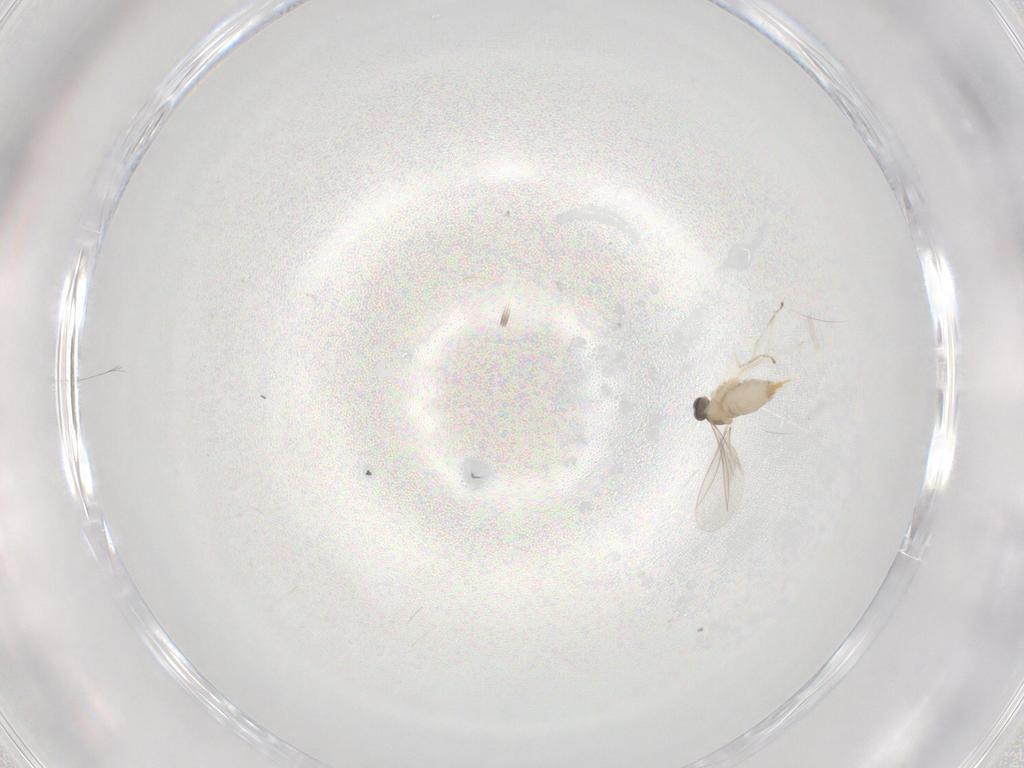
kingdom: Animalia
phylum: Arthropoda
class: Insecta
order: Diptera
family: Cecidomyiidae
